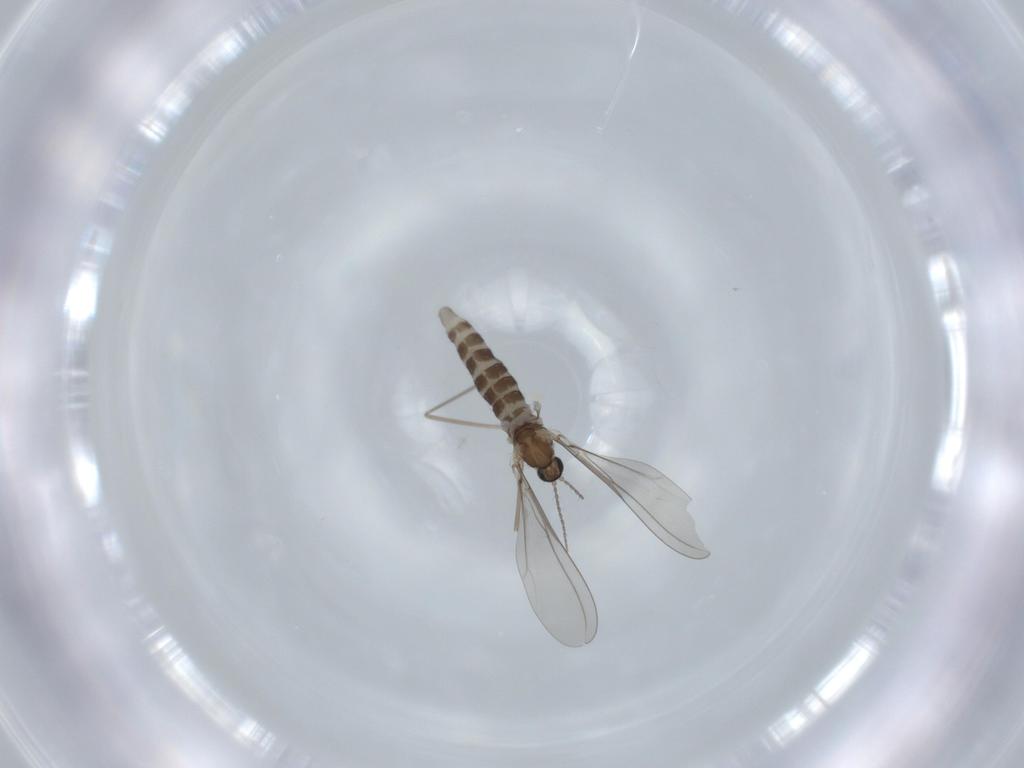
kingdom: Animalia
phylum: Arthropoda
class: Insecta
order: Diptera
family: Cecidomyiidae
